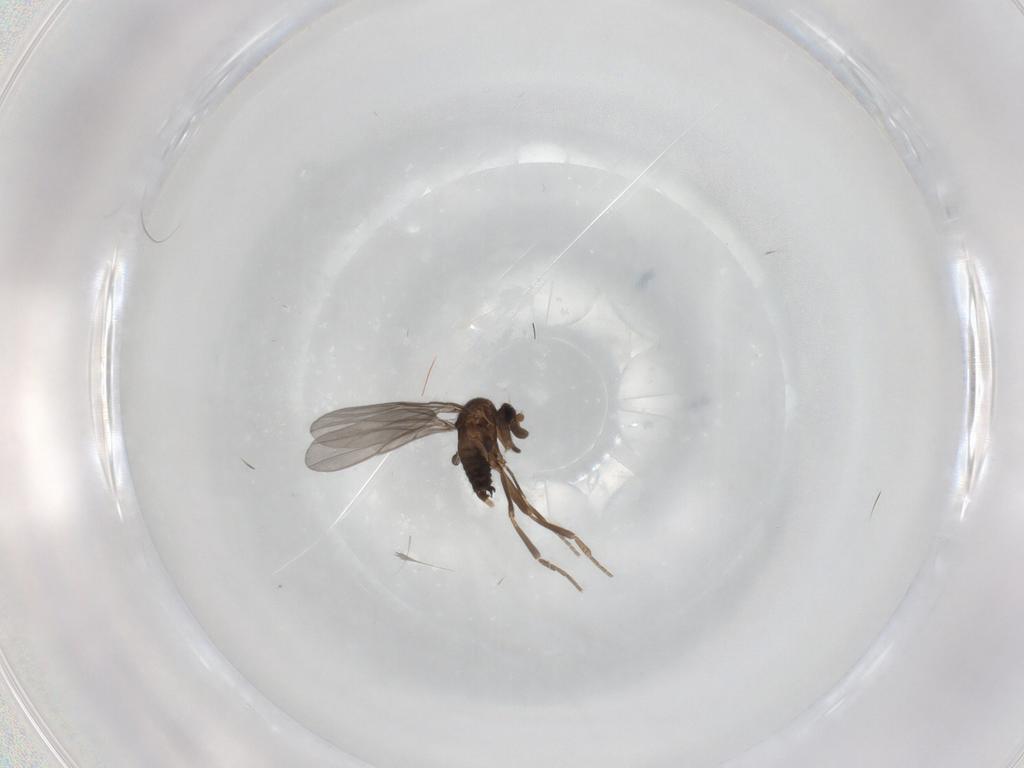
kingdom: Animalia
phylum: Arthropoda
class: Insecta
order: Diptera
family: Phoridae
